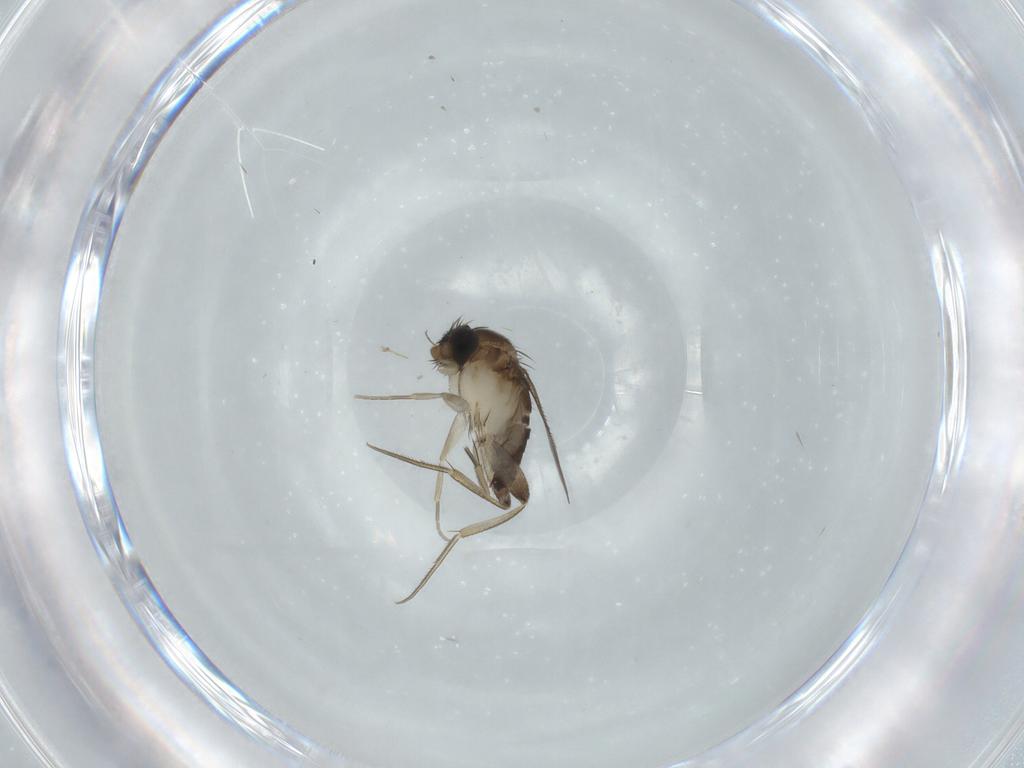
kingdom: Animalia
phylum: Arthropoda
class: Insecta
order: Diptera
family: Phoridae
